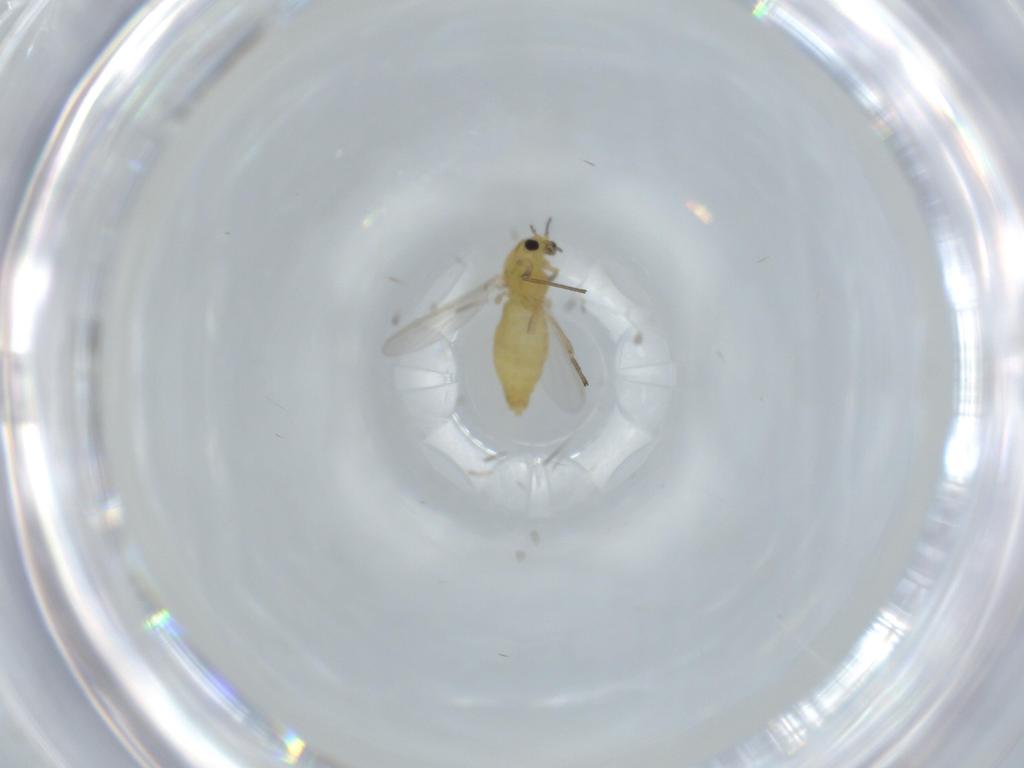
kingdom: Animalia
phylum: Arthropoda
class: Insecta
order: Diptera
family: Chironomidae
